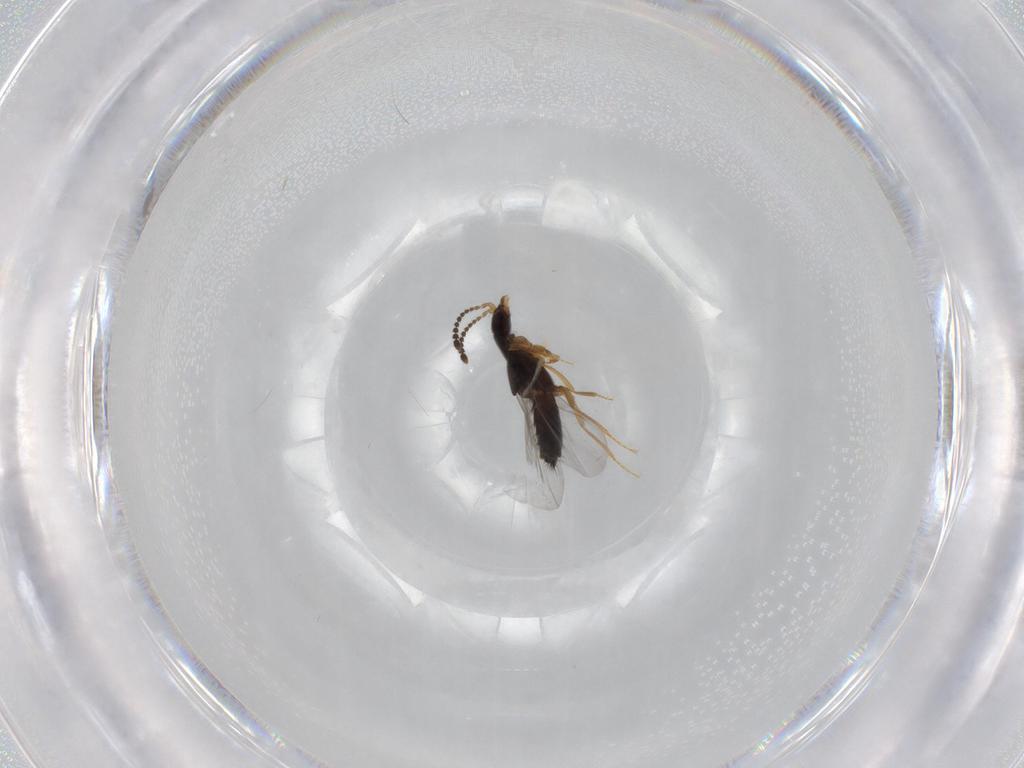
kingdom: Animalia
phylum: Arthropoda
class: Insecta
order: Coleoptera
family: Staphylinidae
